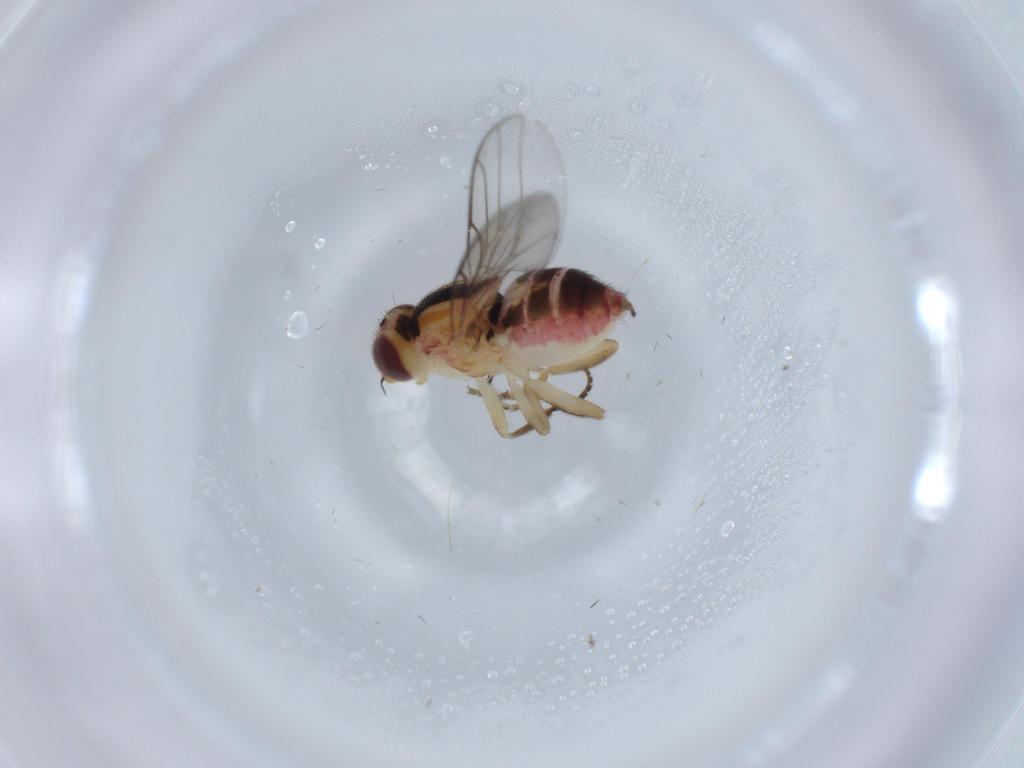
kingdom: Animalia
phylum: Arthropoda
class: Insecta
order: Diptera
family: Chloropidae
